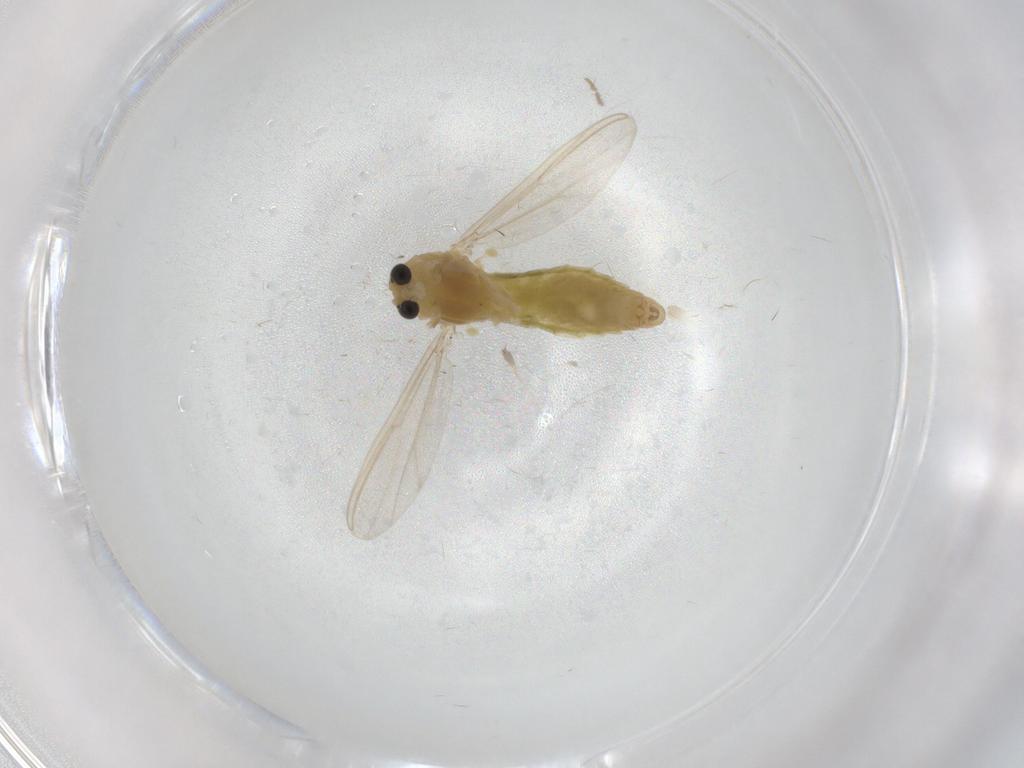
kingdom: Animalia
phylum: Arthropoda
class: Insecta
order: Diptera
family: Chironomidae
